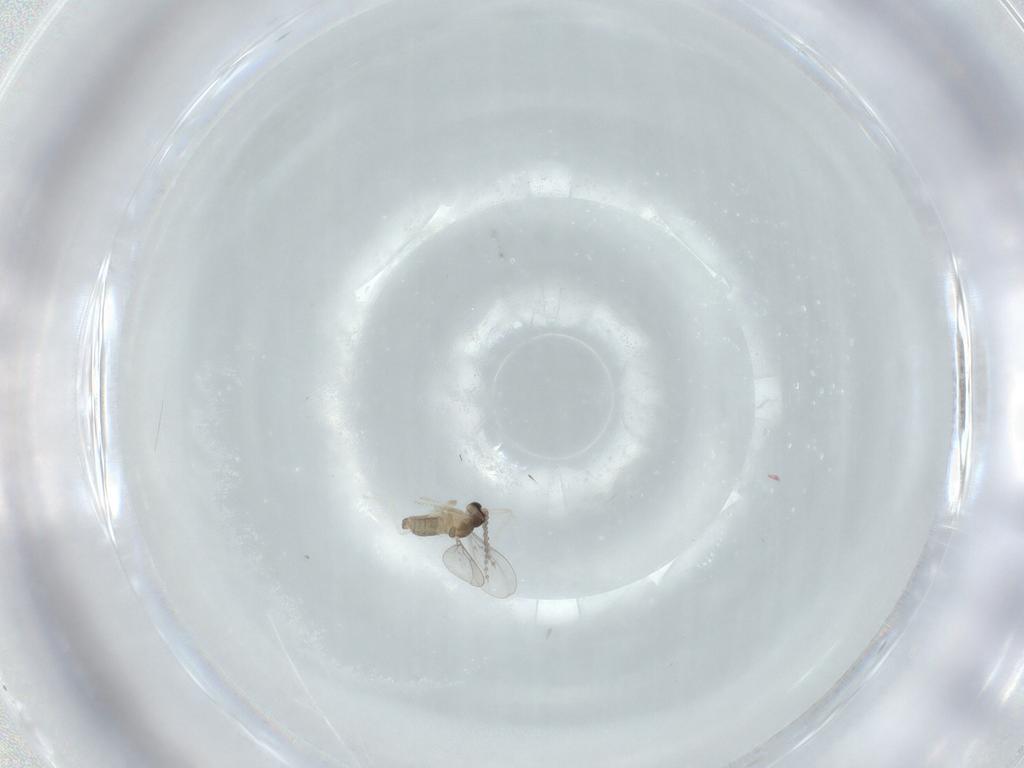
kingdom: Animalia
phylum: Arthropoda
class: Insecta
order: Diptera
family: Cecidomyiidae
